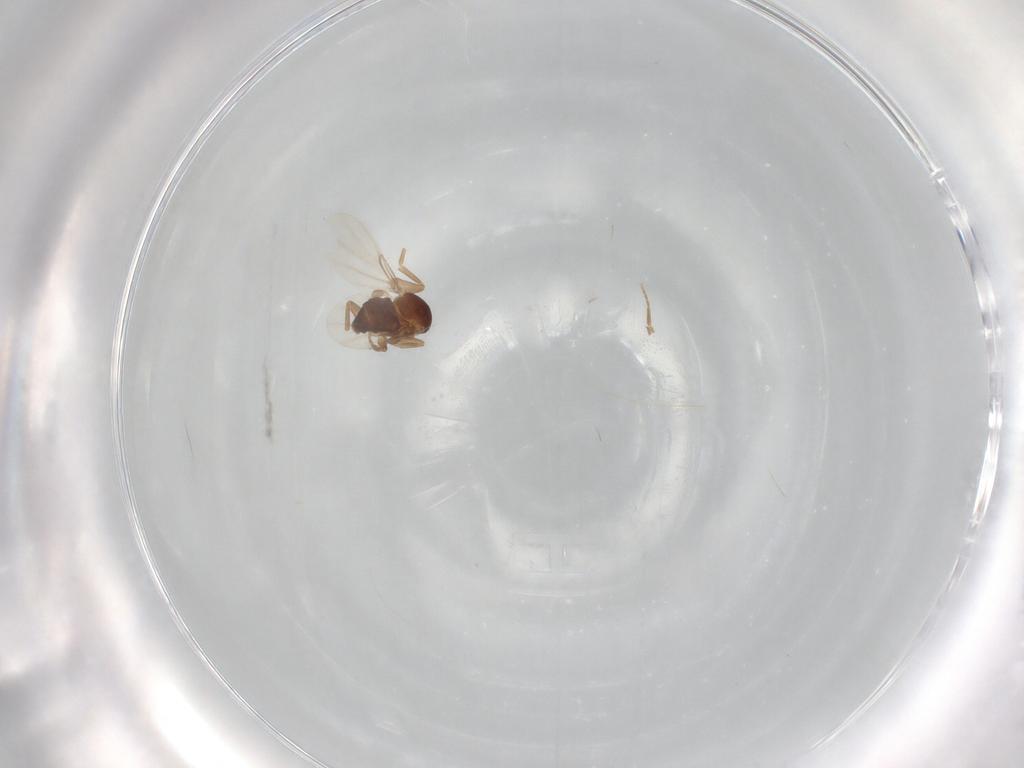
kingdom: Animalia
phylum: Arthropoda
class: Insecta
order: Diptera
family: Phoridae
